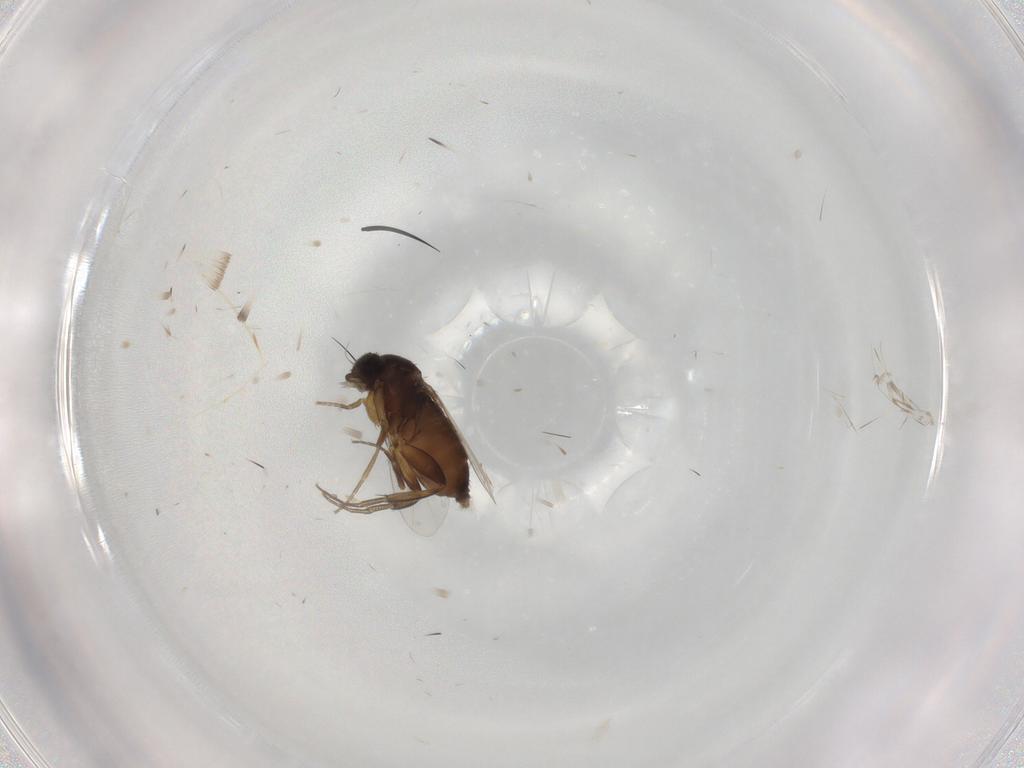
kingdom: Animalia
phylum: Arthropoda
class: Insecta
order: Diptera
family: Phoridae
